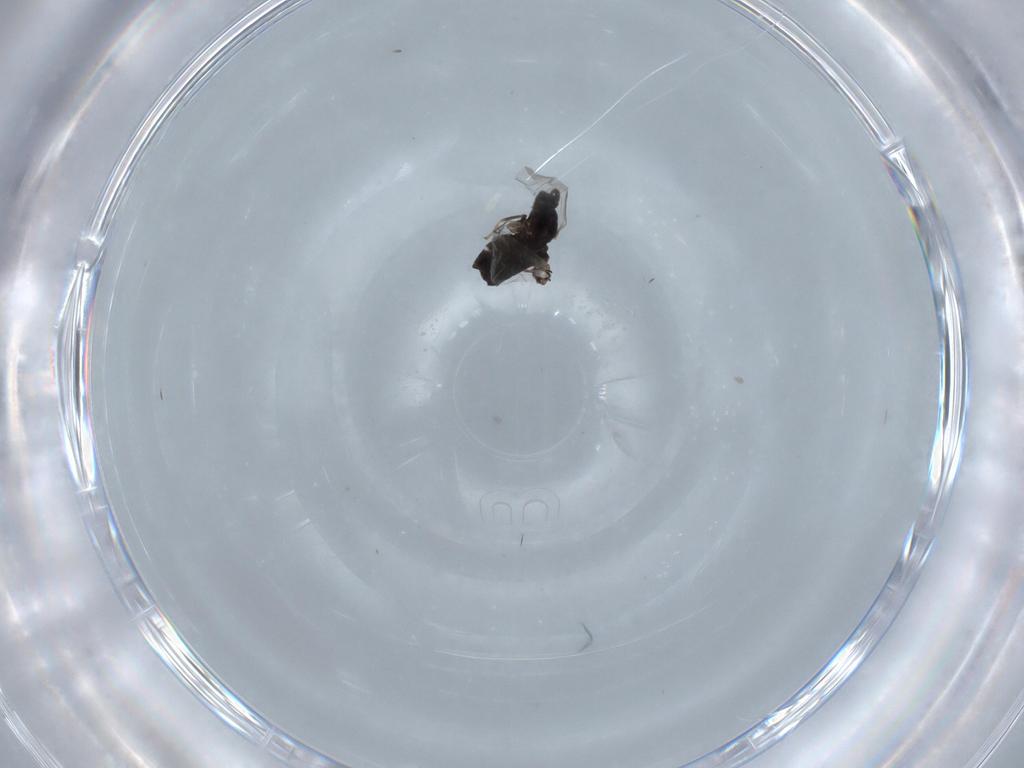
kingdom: Animalia
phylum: Arthropoda
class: Insecta
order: Diptera
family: Scatopsidae
